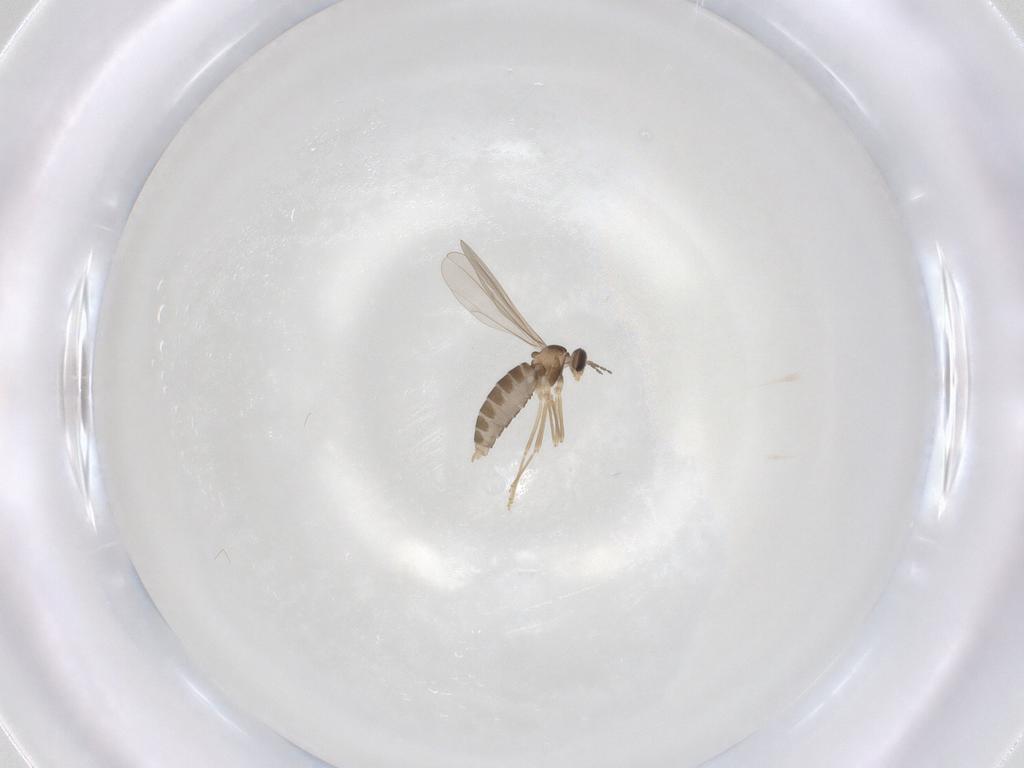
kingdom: Animalia
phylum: Arthropoda
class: Insecta
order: Diptera
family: Cecidomyiidae
